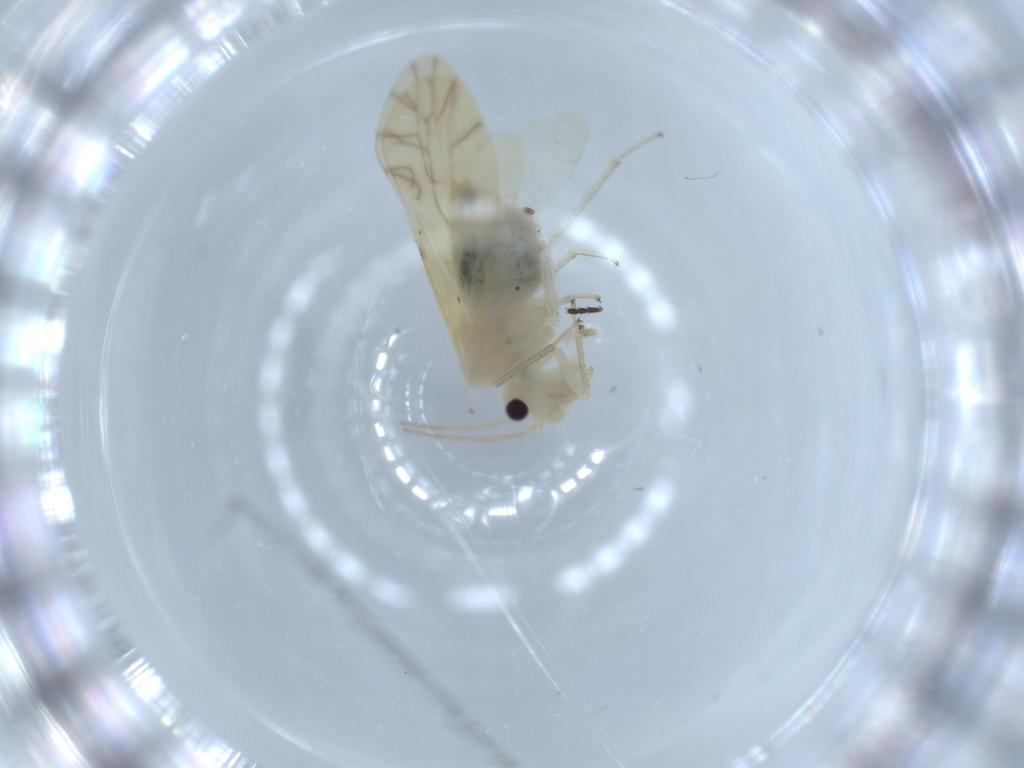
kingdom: Animalia
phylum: Arthropoda
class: Insecta
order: Psocodea
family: Caeciliusidae
